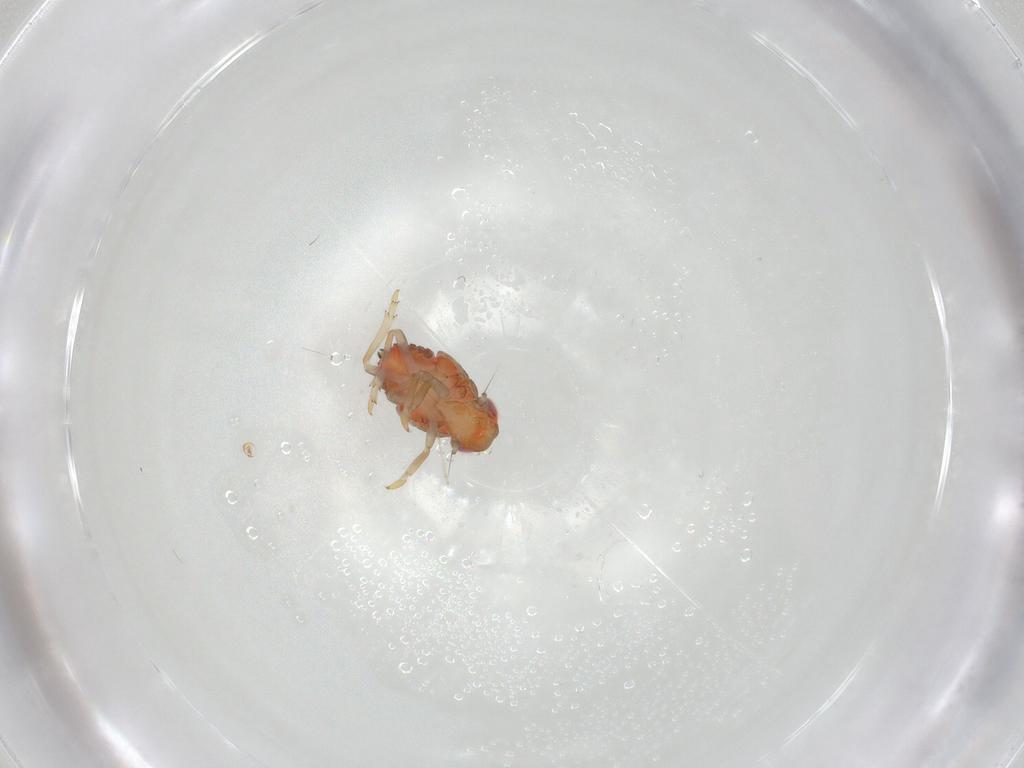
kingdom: Animalia
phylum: Arthropoda
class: Insecta
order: Hemiptera
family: Issidae
